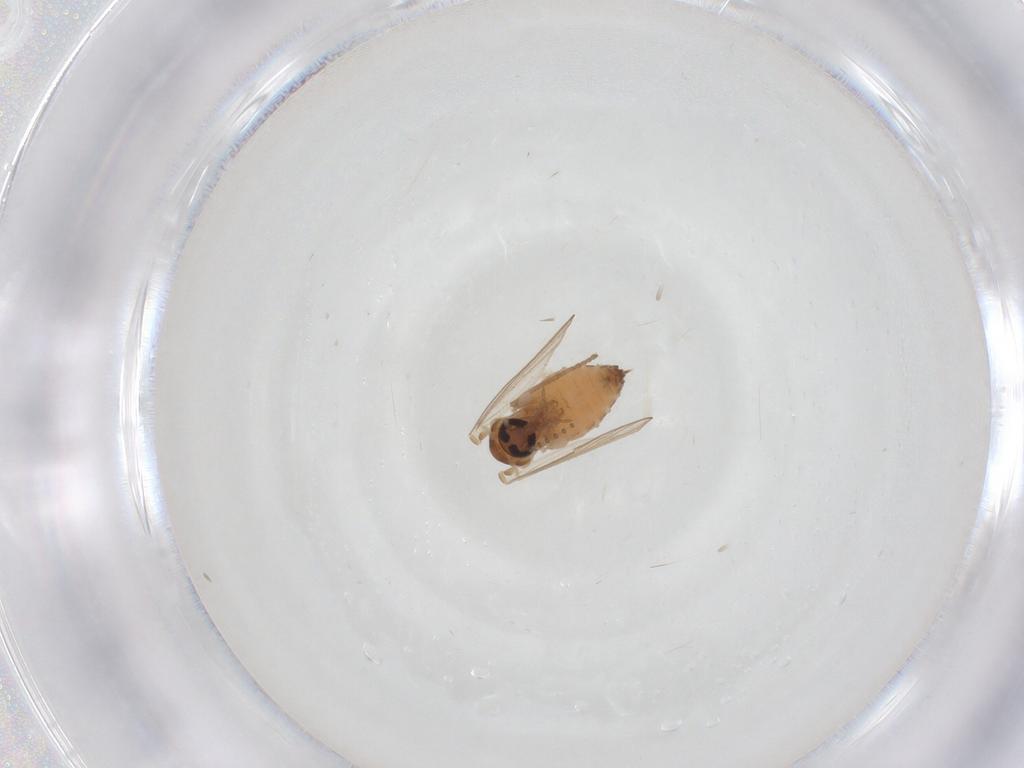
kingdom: Animalia
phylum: Arthropoda
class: Insecta
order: Diptera
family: Psychodidae
